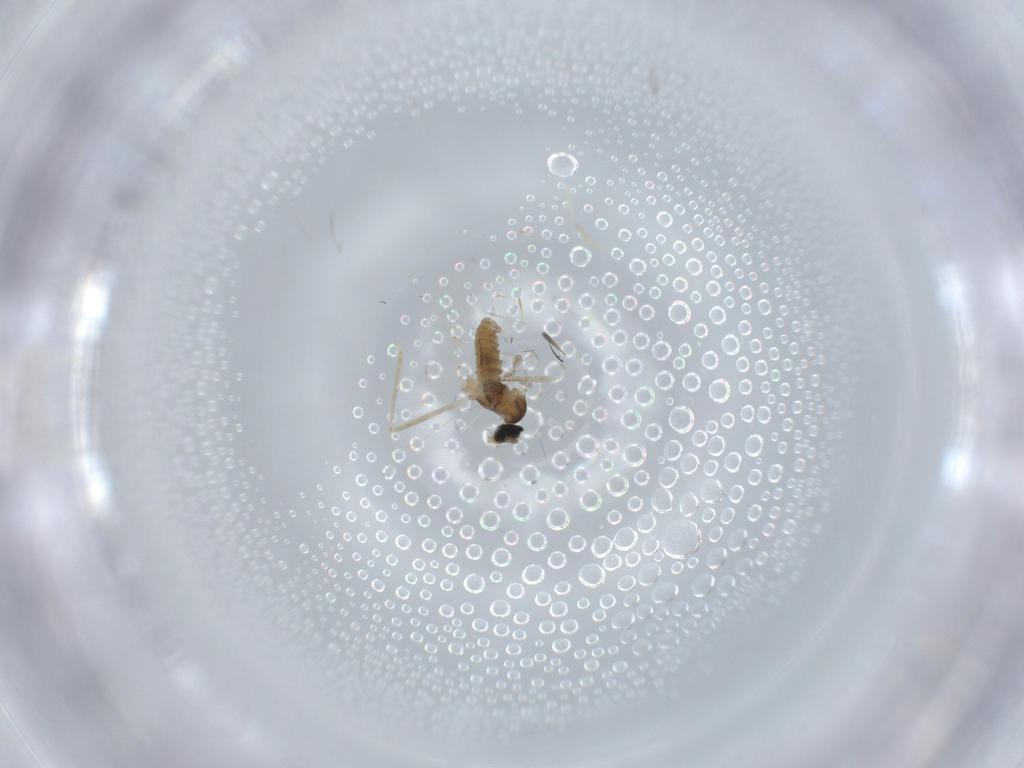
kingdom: Animalia
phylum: Arthropoda
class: Insecta
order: Diptera
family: Cecidomyiidae
